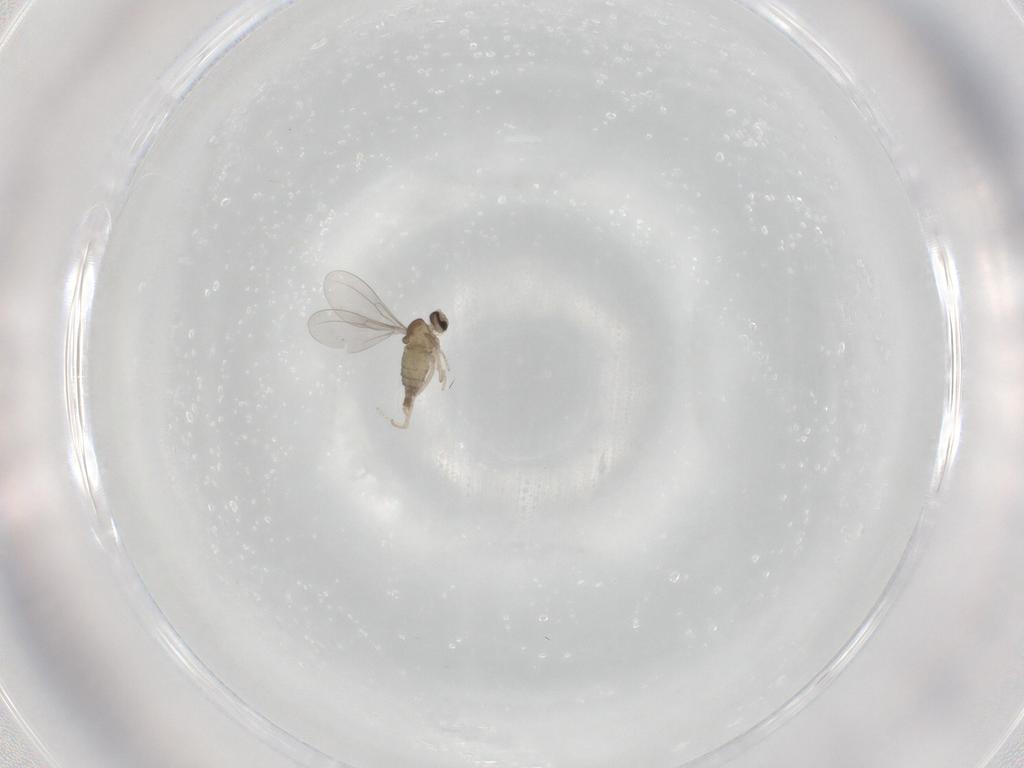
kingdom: Animalia
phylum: Arthropoda
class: Insecta
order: Diptera
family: Cecidomyiidae
